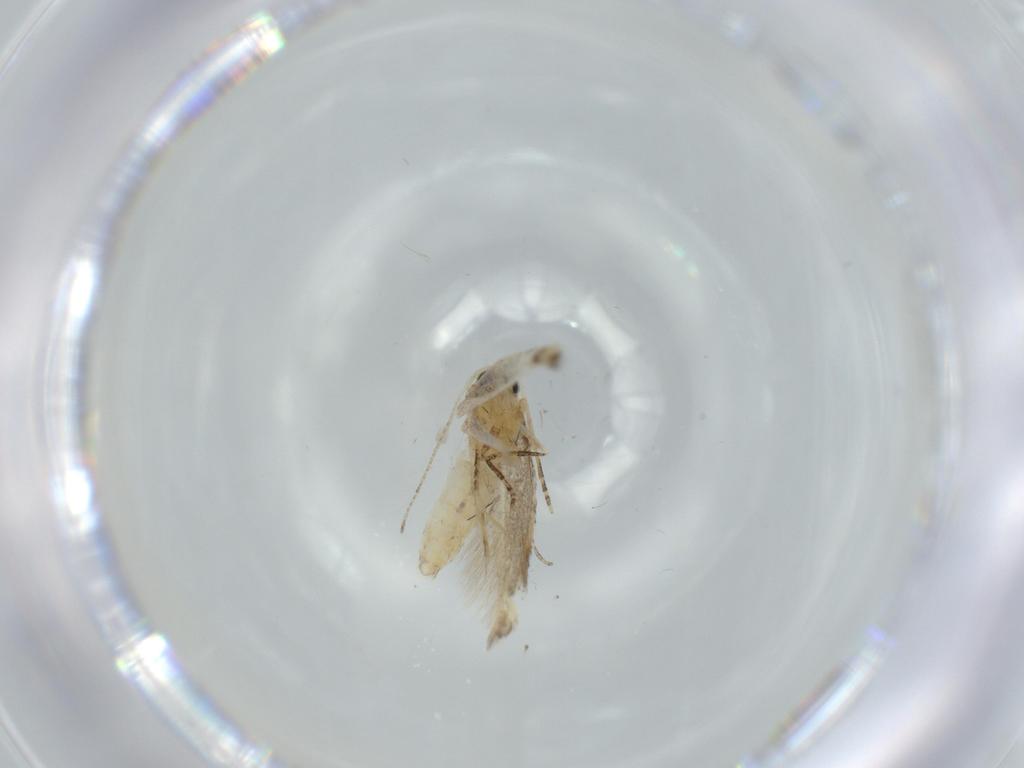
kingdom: Animalia
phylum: Arthropoda
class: Insecta
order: Lepidoptera
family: Bucculatricidae
